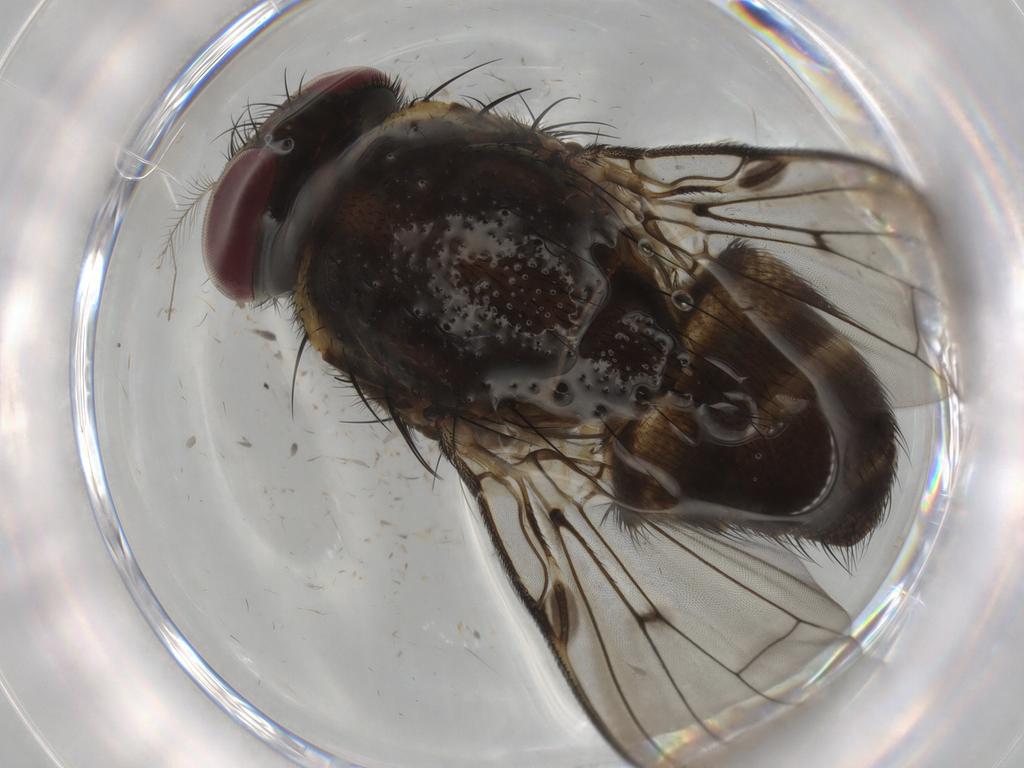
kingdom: Animalia
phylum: Arthropoda
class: Insecta
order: Diptera
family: Muscidae
